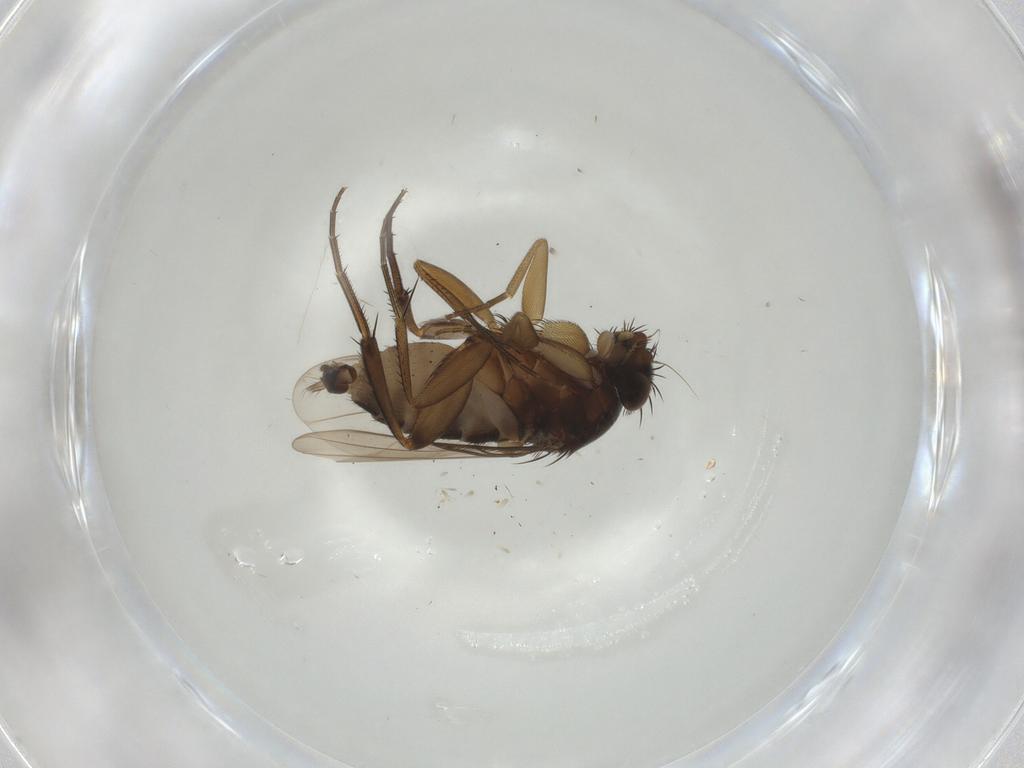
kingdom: Animalia
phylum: Arthropoda
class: Insecta
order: Diptera
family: Phoridae
